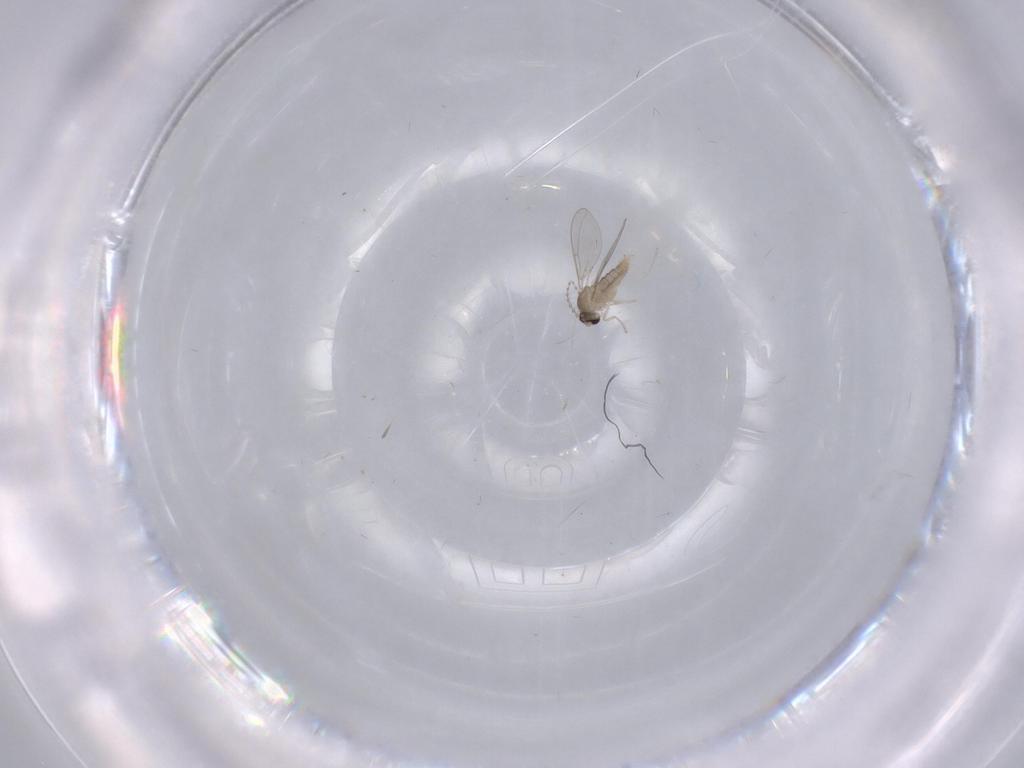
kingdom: Animalia
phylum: Arthropoda
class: Insecta
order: Diptera
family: Cecidomyiidae
